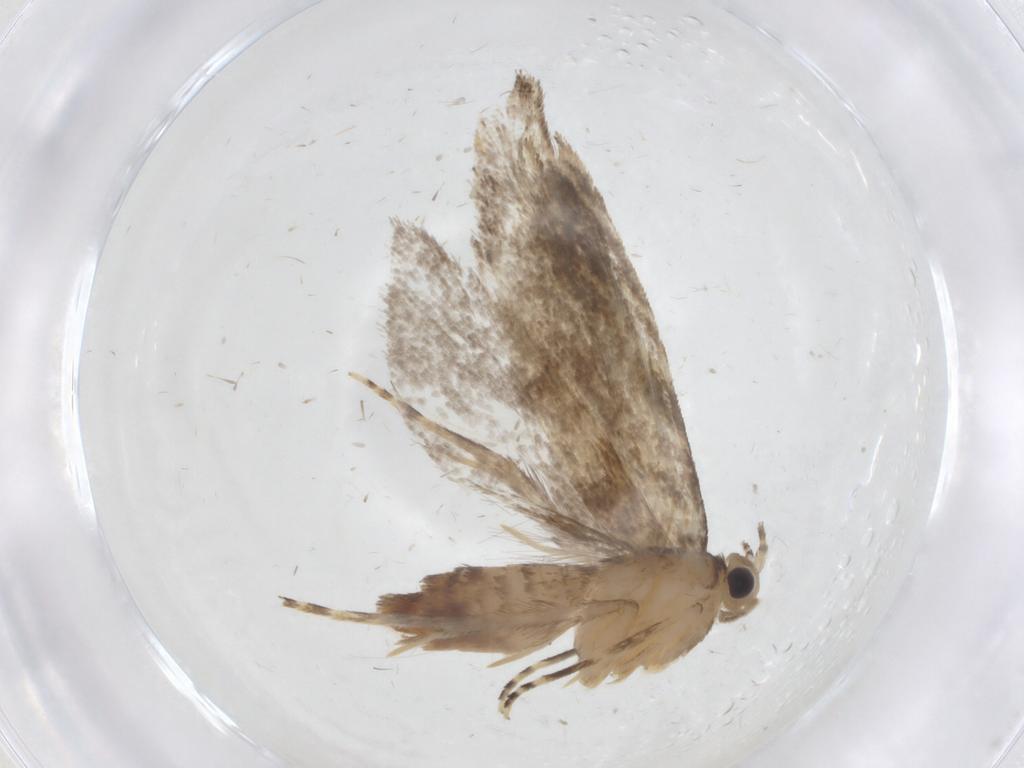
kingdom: Animalia
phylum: Arthropoda
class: Insecta
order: Lepidoptera
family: Tineidae
